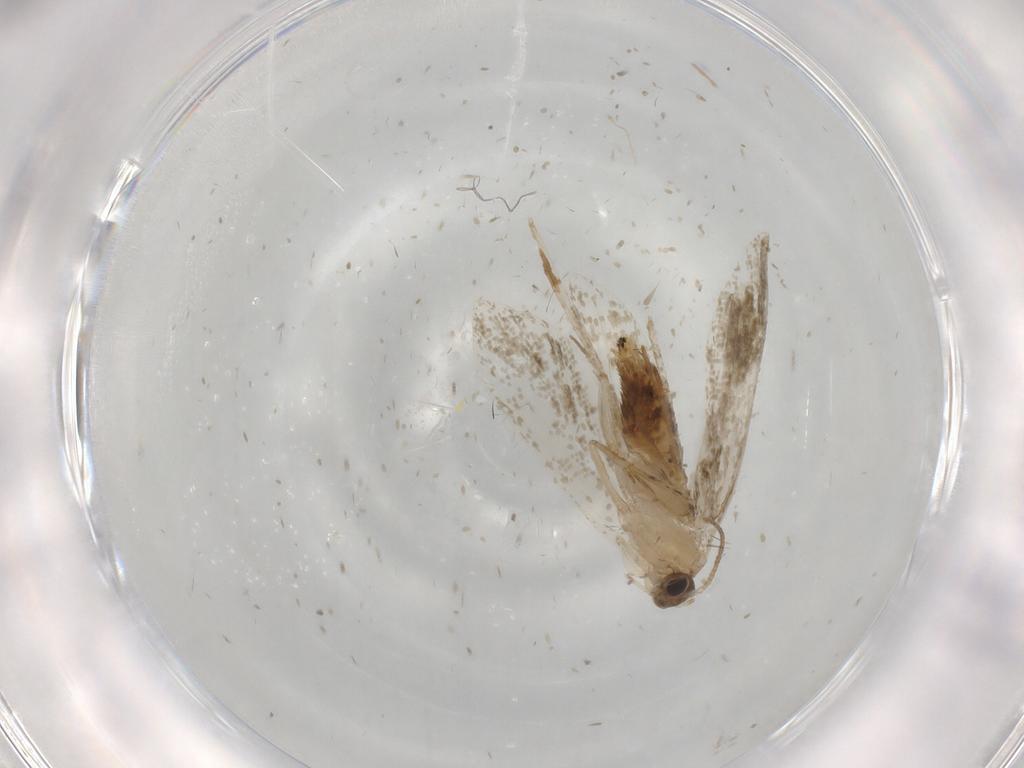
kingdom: Animalia
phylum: Arthropoda
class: Insecta
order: Lepidoptera
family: Crambidae
